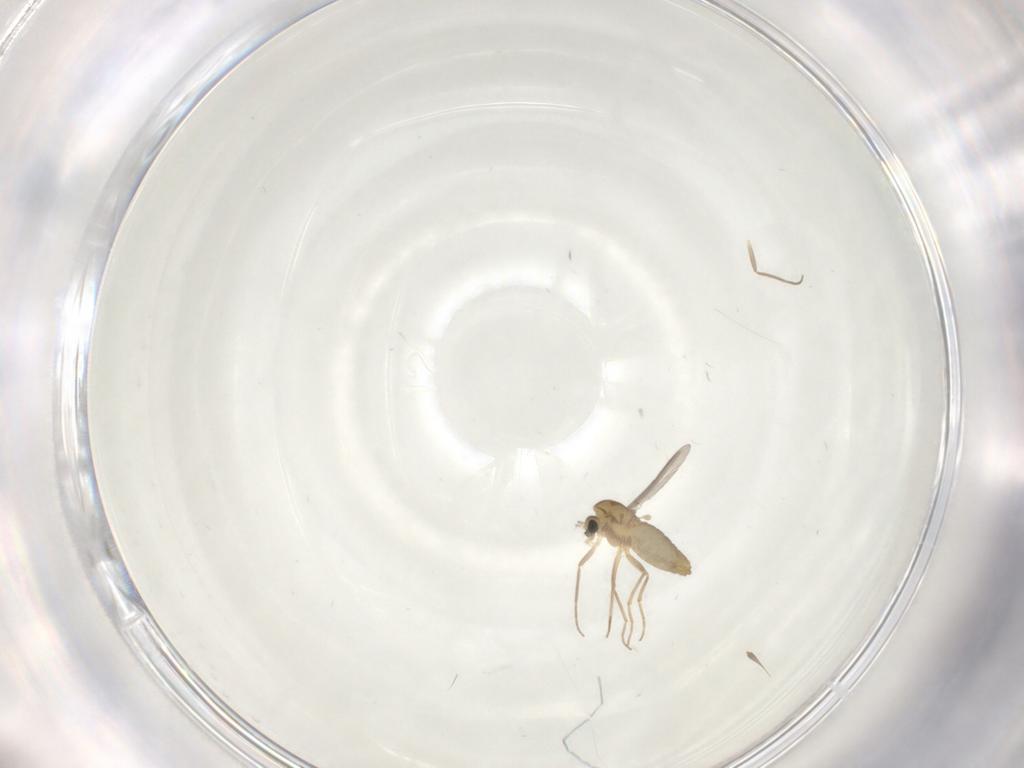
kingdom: Animalia
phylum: Arthropoda
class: Insecta
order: Diptera
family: Chironomidae
